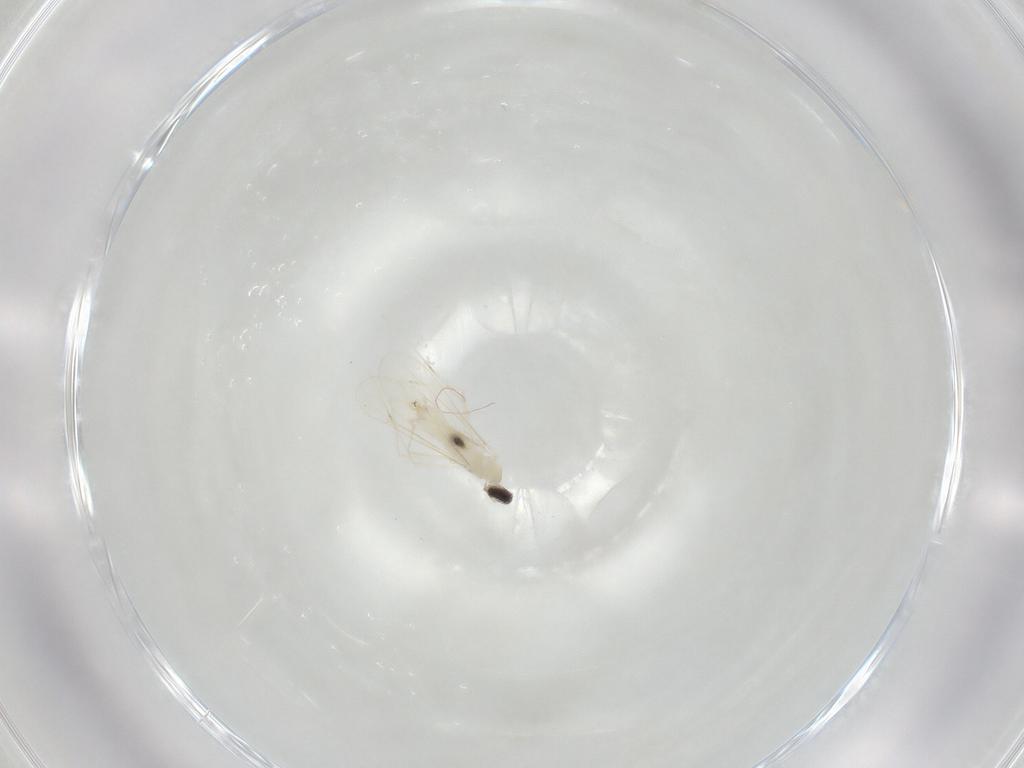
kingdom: Animalia
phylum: Arthropoda
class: Insecta
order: Diptera
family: Cecidomyiidae
